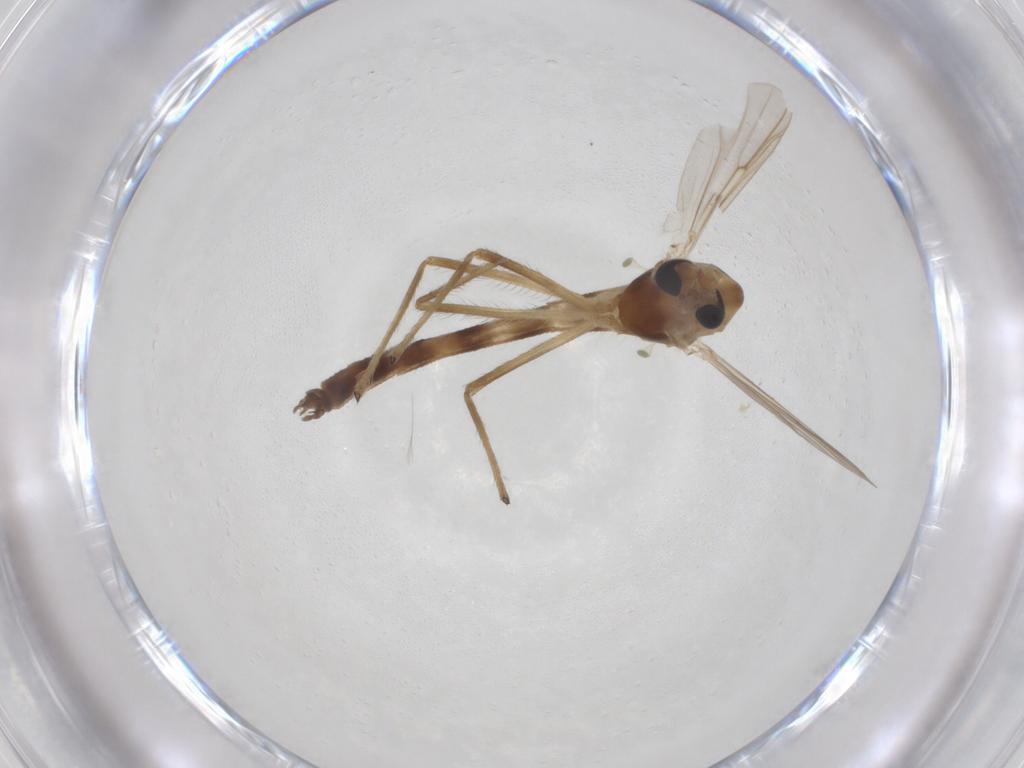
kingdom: Animalia
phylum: Arthropoda
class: Insecta
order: Diptera
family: Chironomidae
